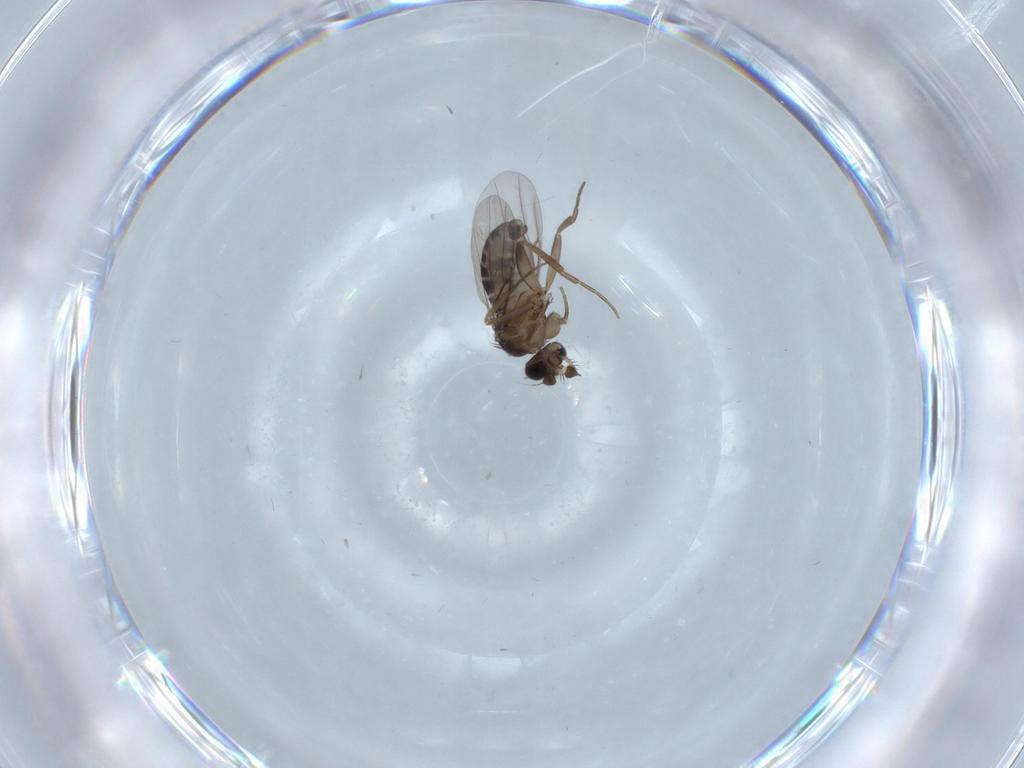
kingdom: Animalia
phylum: Arthropoda
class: Insecta
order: Diptera
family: Phoridae
